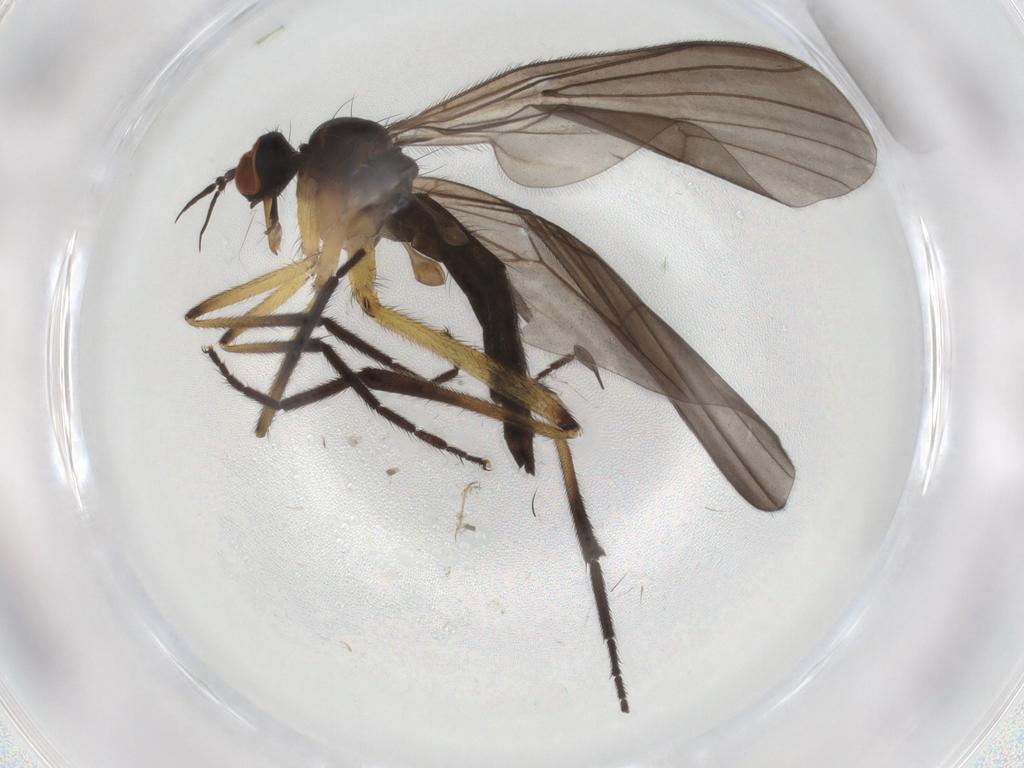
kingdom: Animalia
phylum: Arthropoda
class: Insecta
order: Diptera
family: Empididae
